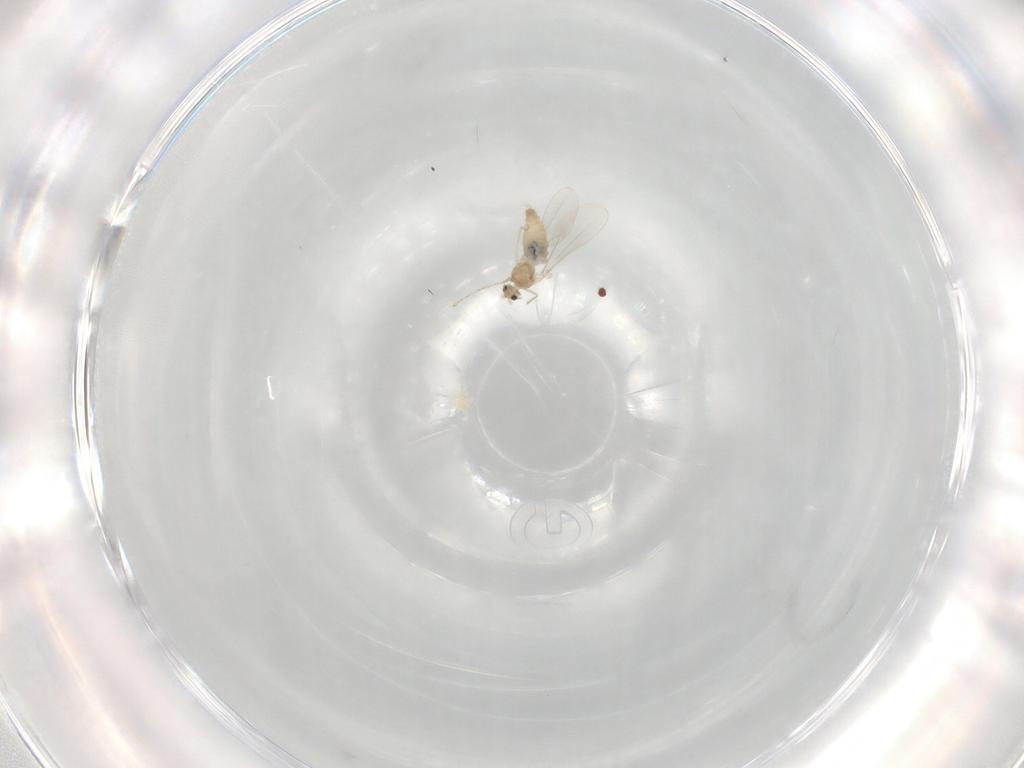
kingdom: Animalia
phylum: Arthropoda
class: Insecta
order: Diptera
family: Cecidomyiidae
